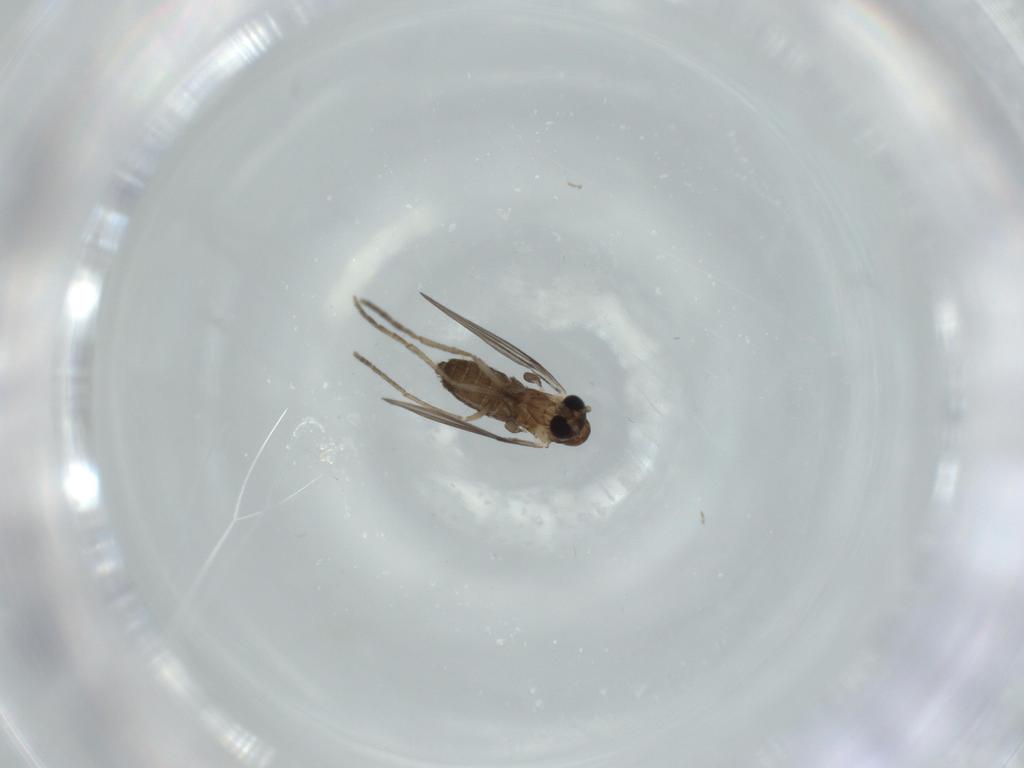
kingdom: Animalia
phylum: Arthropoda
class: Insecta
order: Diptera
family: Psychodidae
